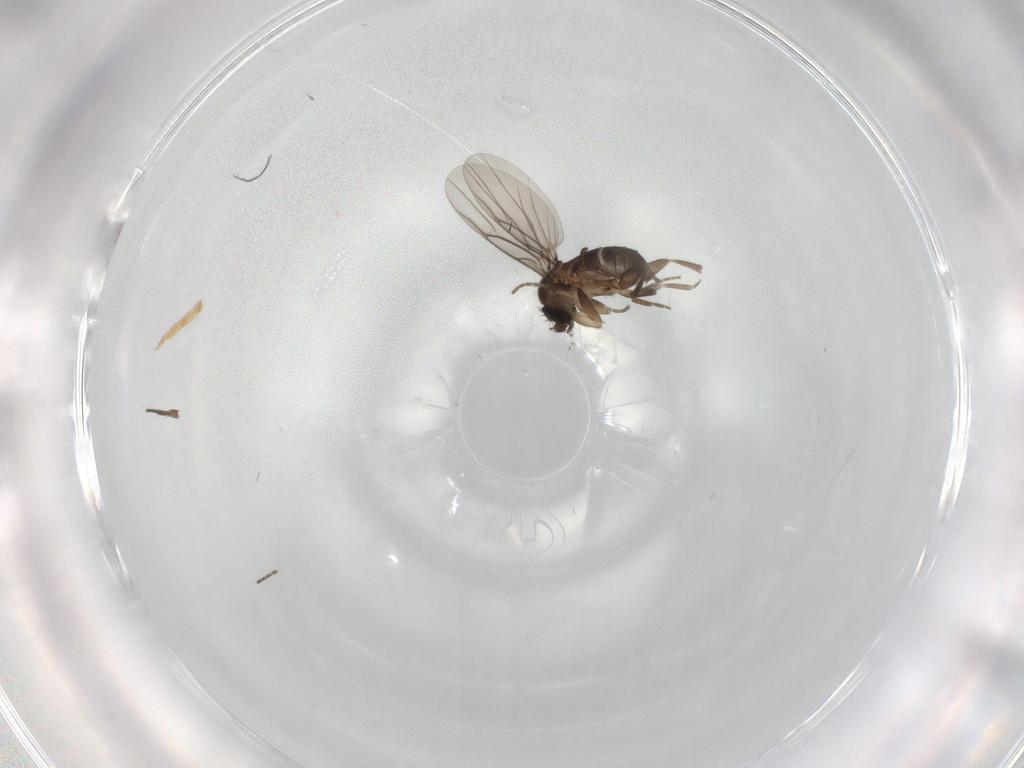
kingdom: Animalia
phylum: Arthropoda
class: Insecta
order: Diptera
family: Cecidomyiidae
